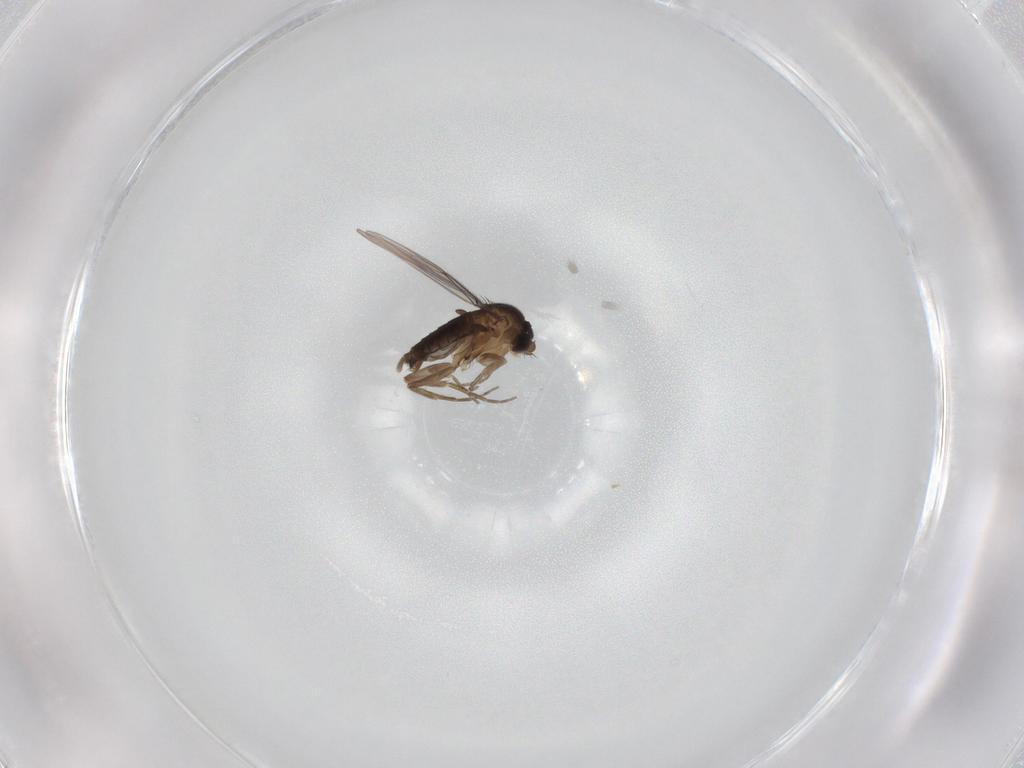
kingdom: Animalia
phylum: Arthropoda
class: Insecta
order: Diptera
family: Phoridae
